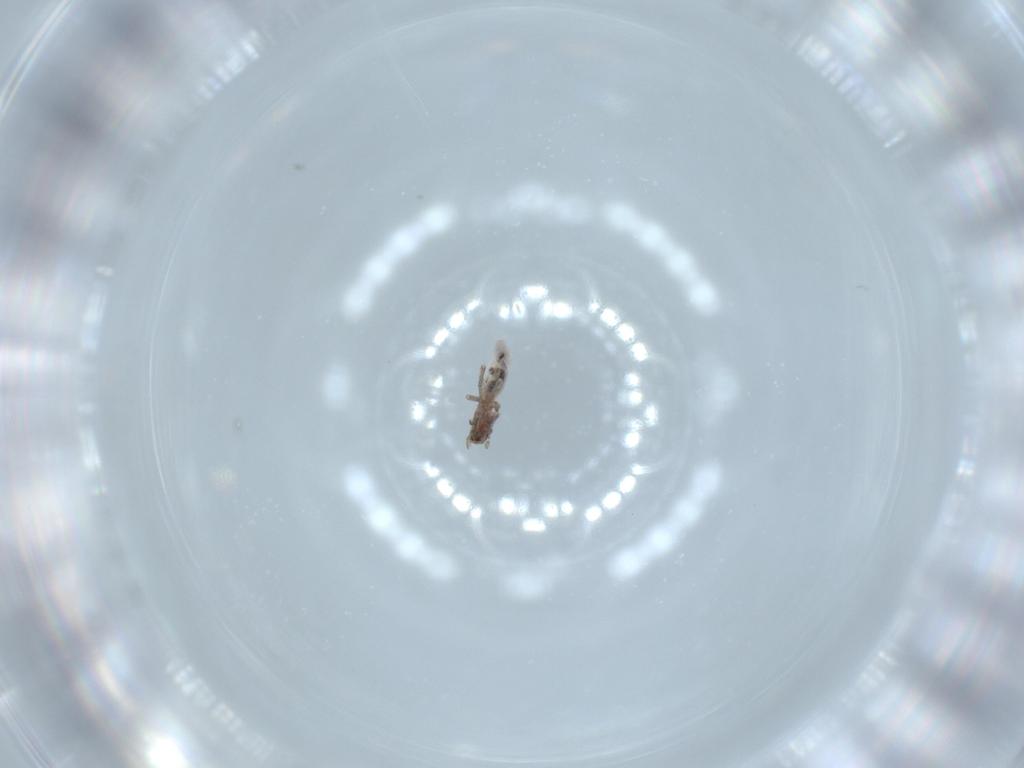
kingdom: Animalia
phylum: Arthropoda
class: Insecta
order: Psocodea
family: Lepidopsocidae
